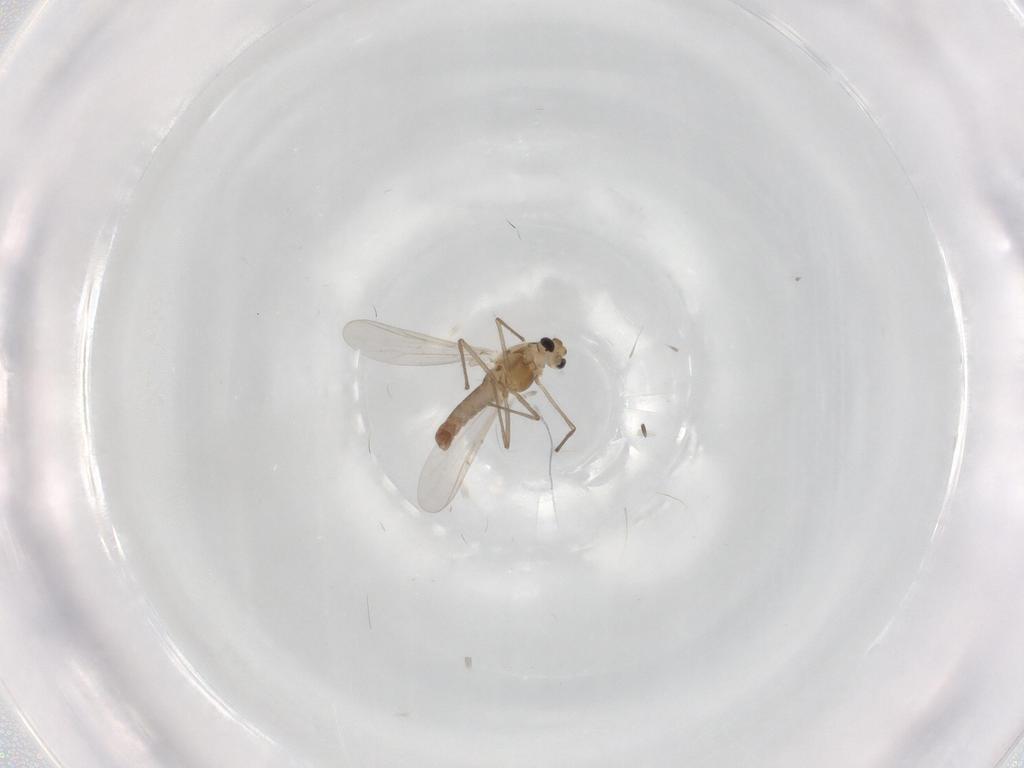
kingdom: Animalia
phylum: Arthropoda
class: Insecta
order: Diptera
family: Chironomidae
